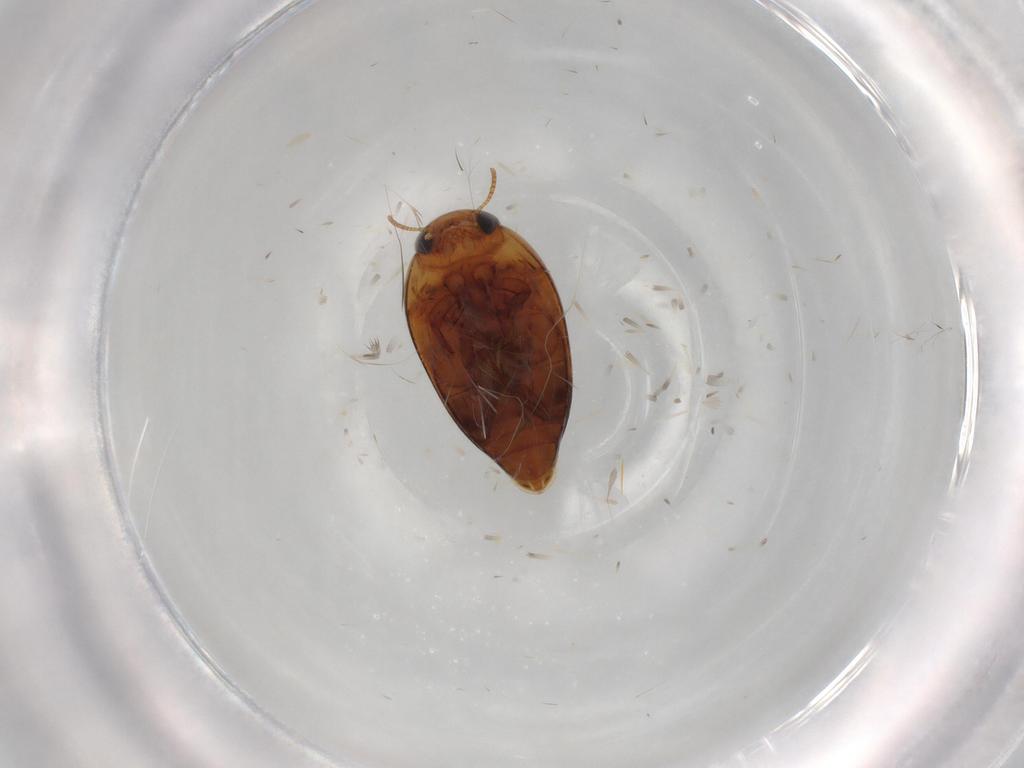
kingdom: Animalia
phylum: Arthropoda
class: Insecta
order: Coleoptera
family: Noteridae
